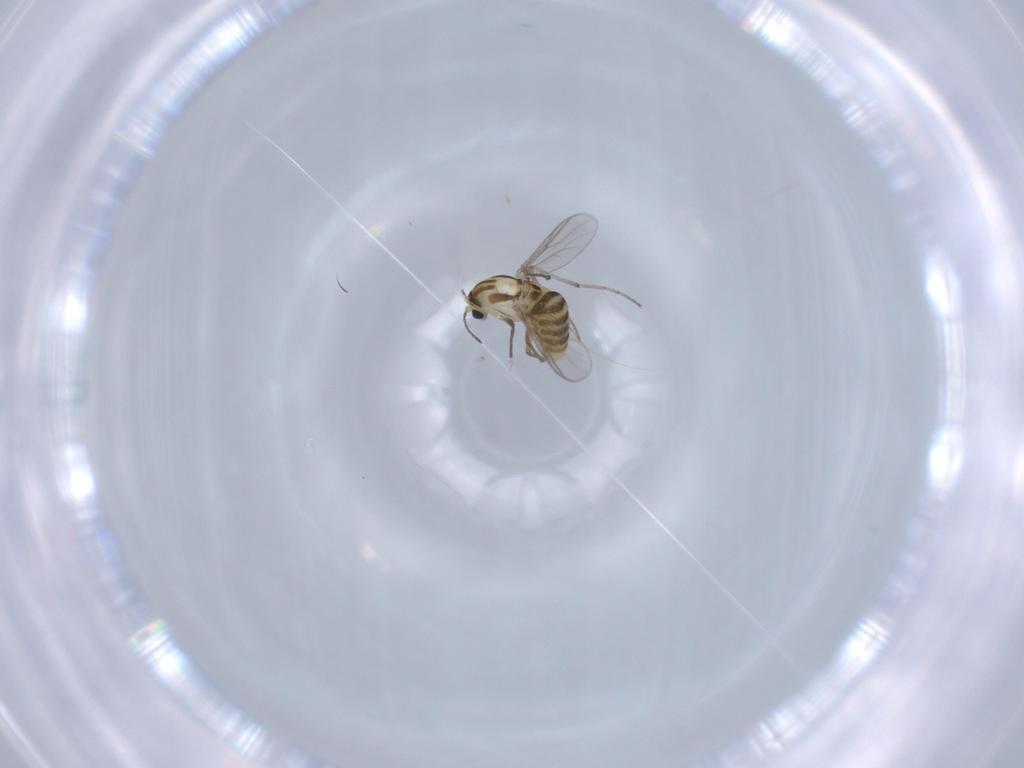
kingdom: Animalia
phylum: Arthropoda
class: Insecta
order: Diptera
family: Chironomidae
